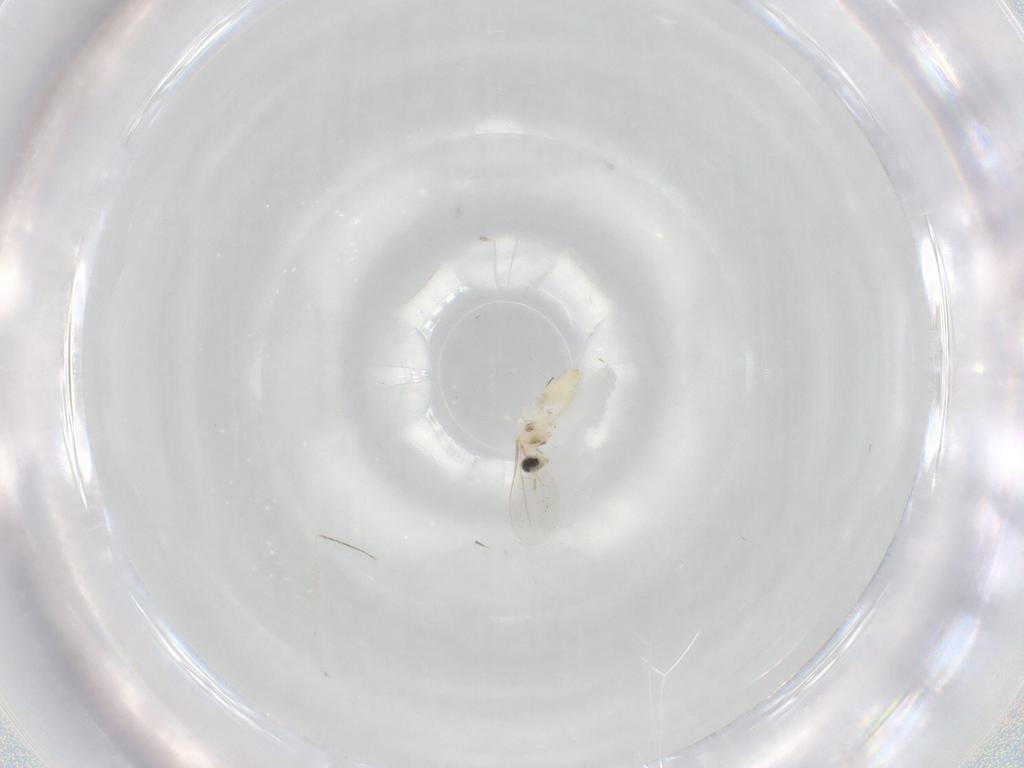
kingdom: Animalia
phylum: Arthropoda
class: Insecta
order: Diptera
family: Cecidomyiidae
